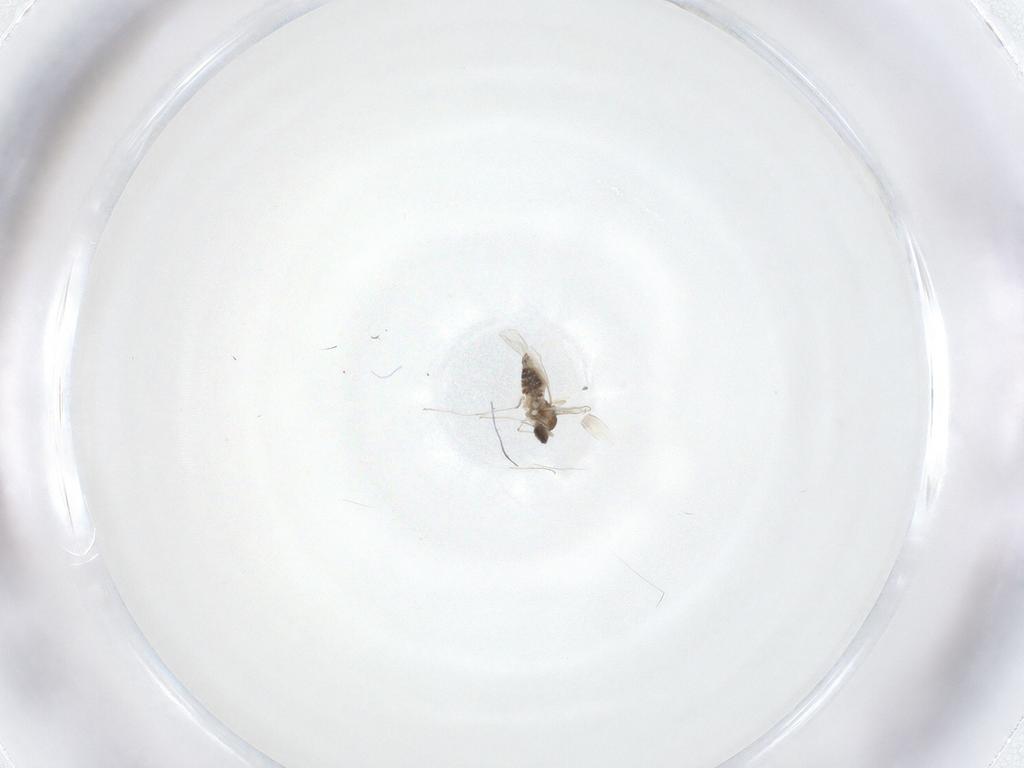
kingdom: Animalia
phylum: Arthropoda
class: Insecta
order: Diptera
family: Cecidomyiidae
